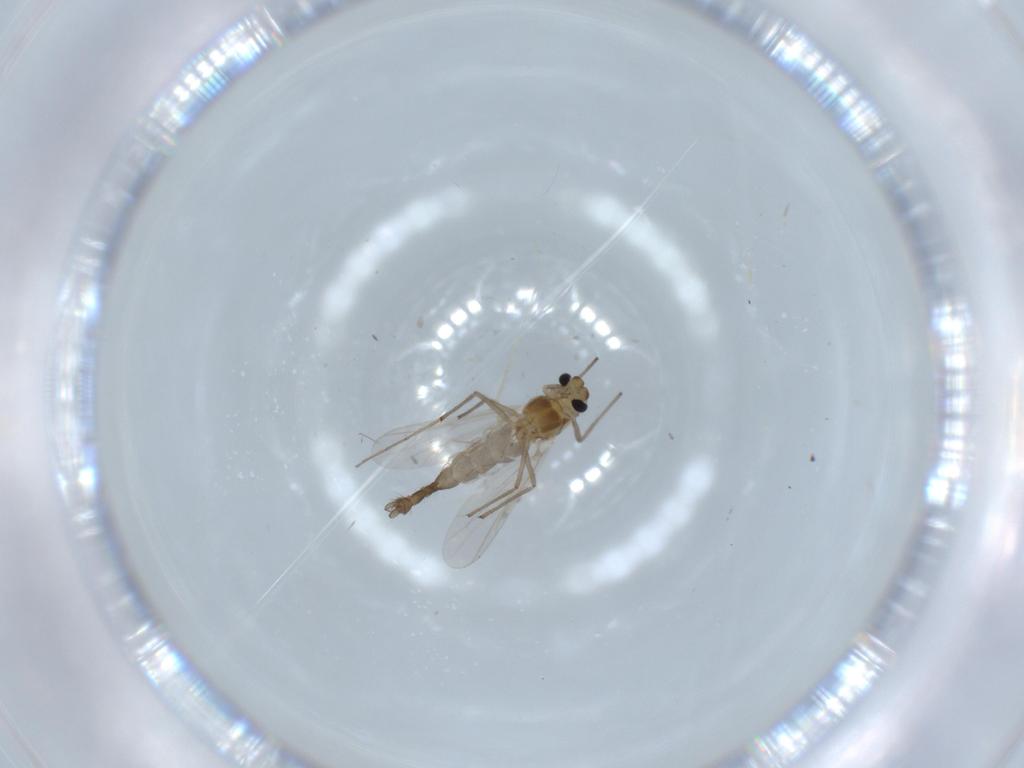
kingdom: Animalia
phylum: Arthropoda
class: Insecta
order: Diptera
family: Chironomidae
